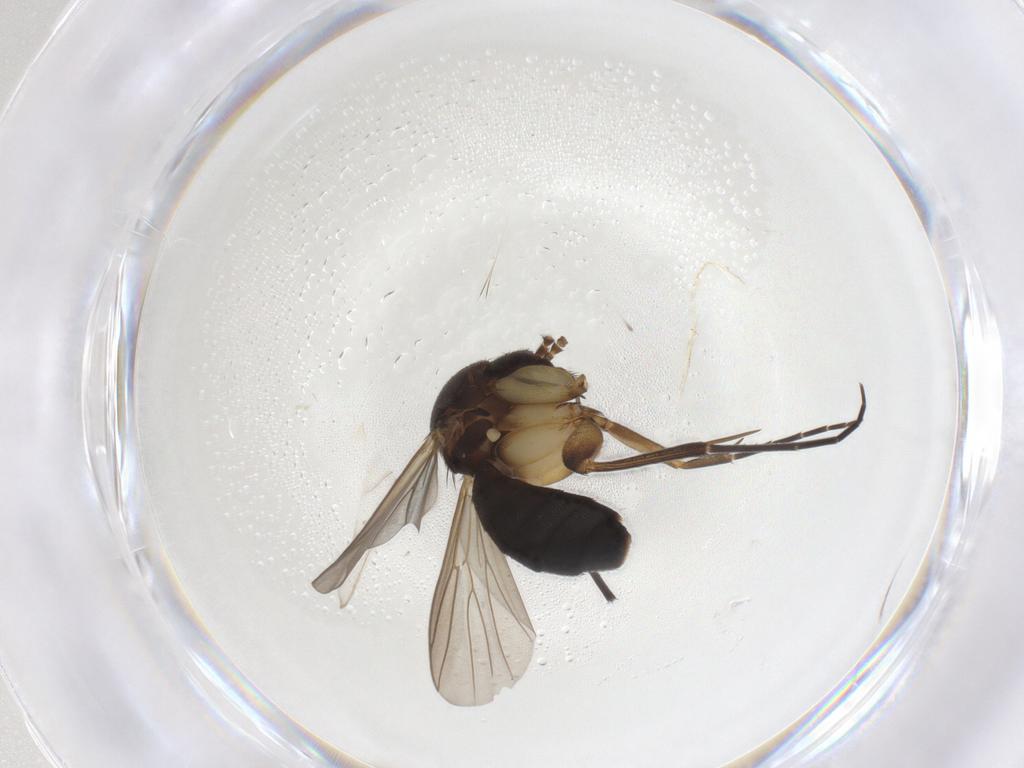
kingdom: Animalia
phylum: Arthropoda
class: Insecta
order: Diptera
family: Mycetophilidae
